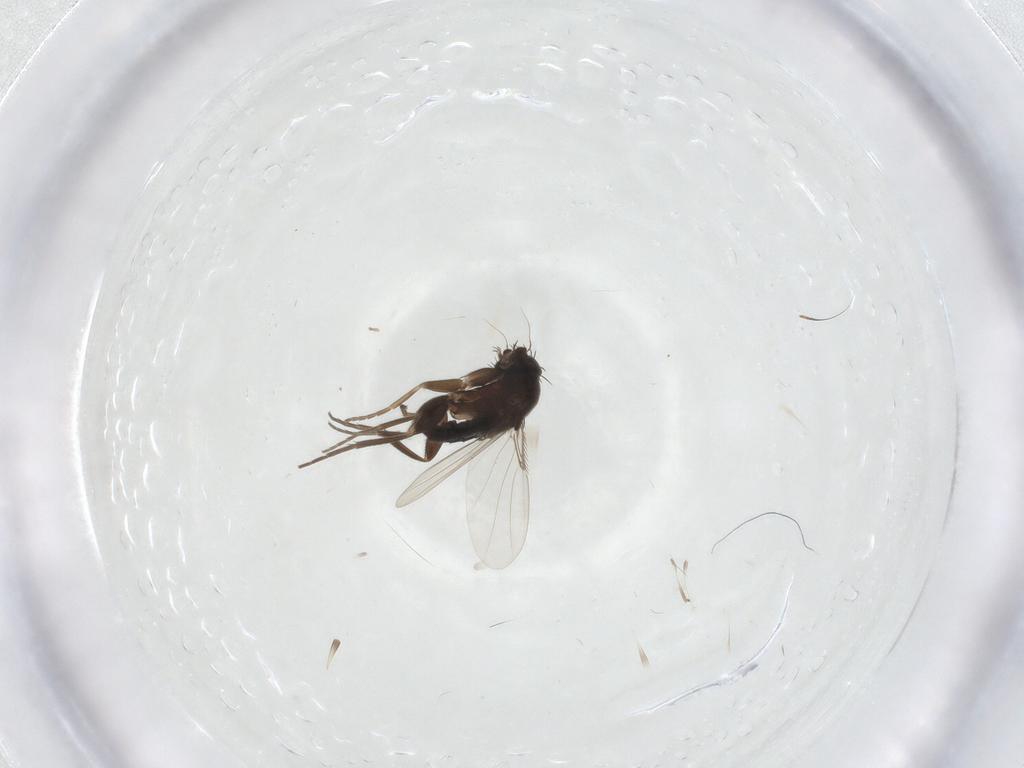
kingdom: Animalia
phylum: Arthropoda
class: Insecta
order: Diptera
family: Phoridae
